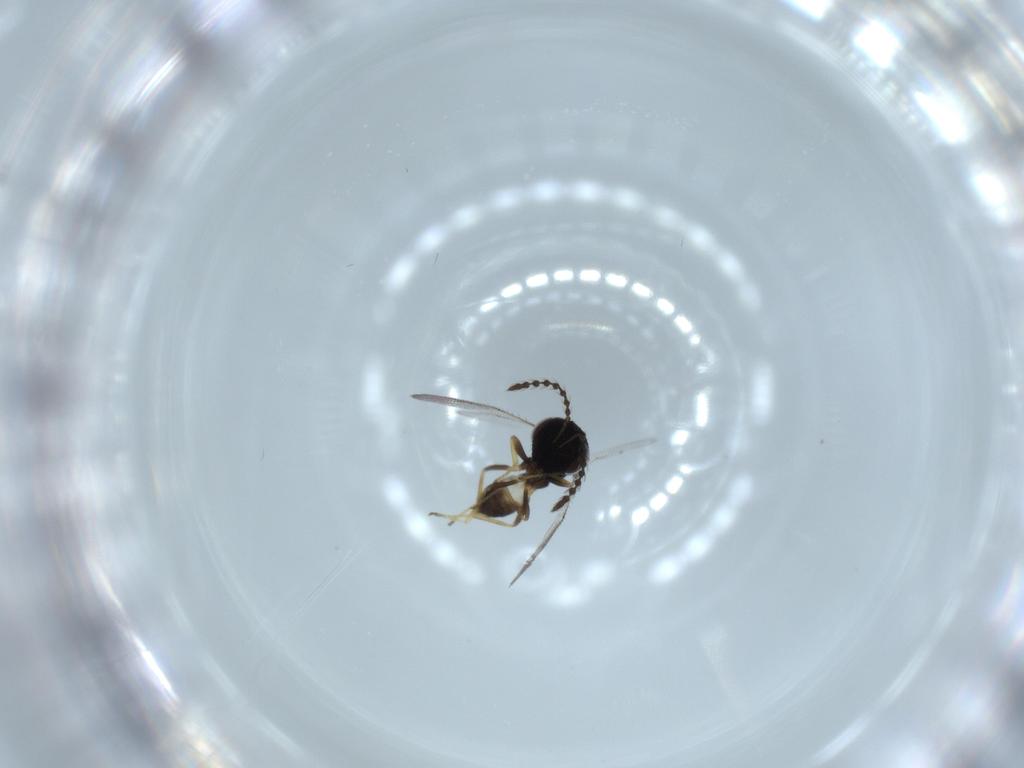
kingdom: Animalia
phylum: Arthropoda
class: Insecta
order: Hymenoptera
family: Pteromalidae
